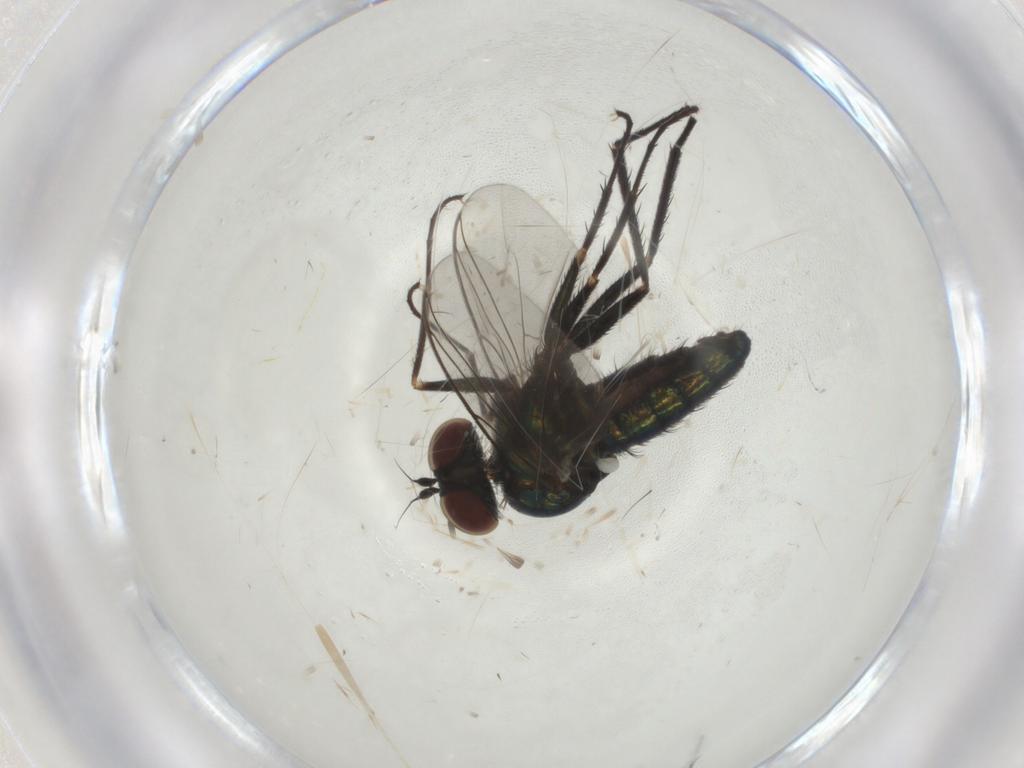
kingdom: Animalia
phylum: Arthropoda
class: Insecta
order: Diptera
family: Dolichopodidae
